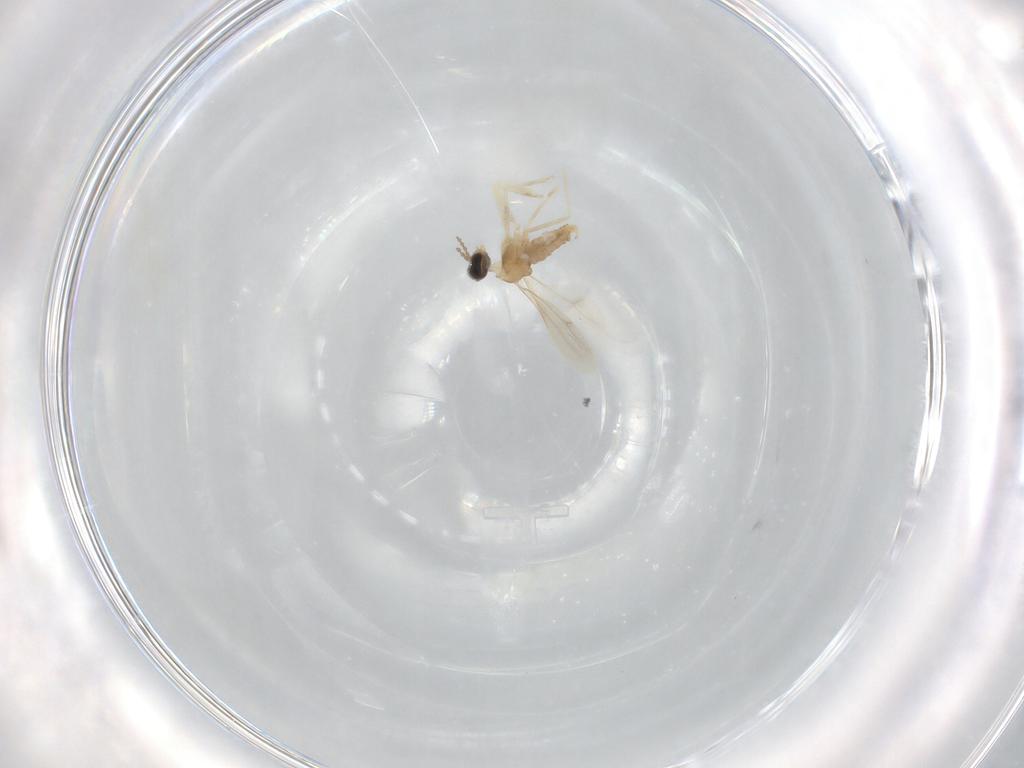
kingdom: Animalia
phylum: Arthropoda
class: Insecta
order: Diptera
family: Cecidomyiidae
